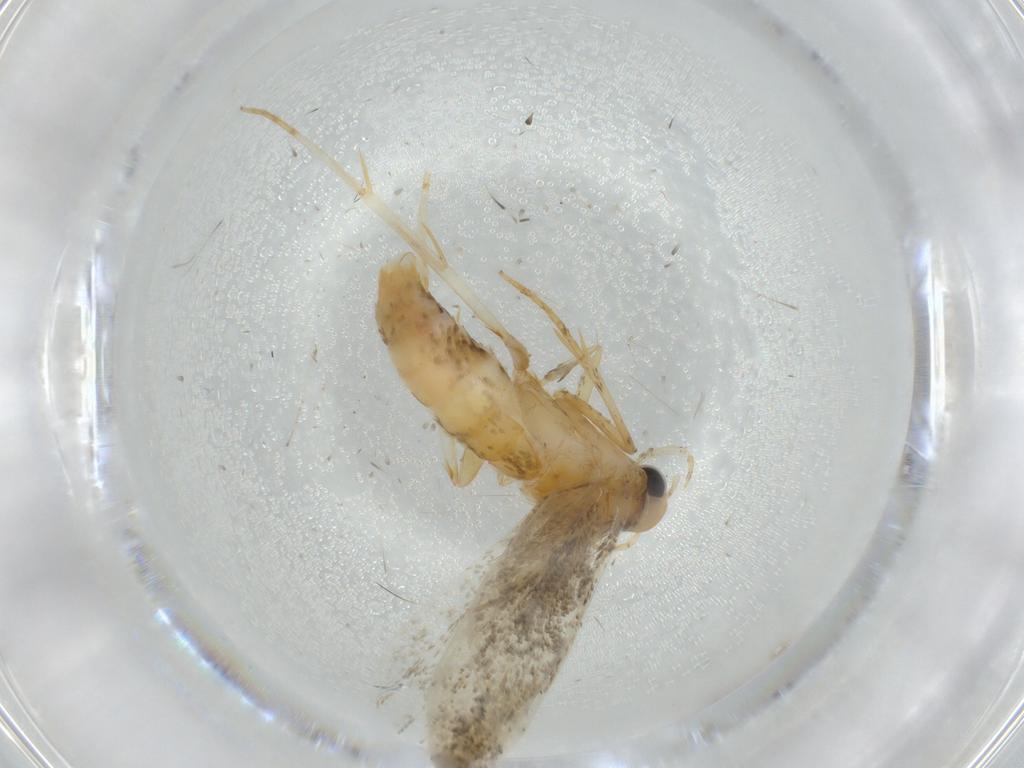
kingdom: Animalia
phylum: Arthropoda
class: Insecta
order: Lepidoptera
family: Gelechiidae
